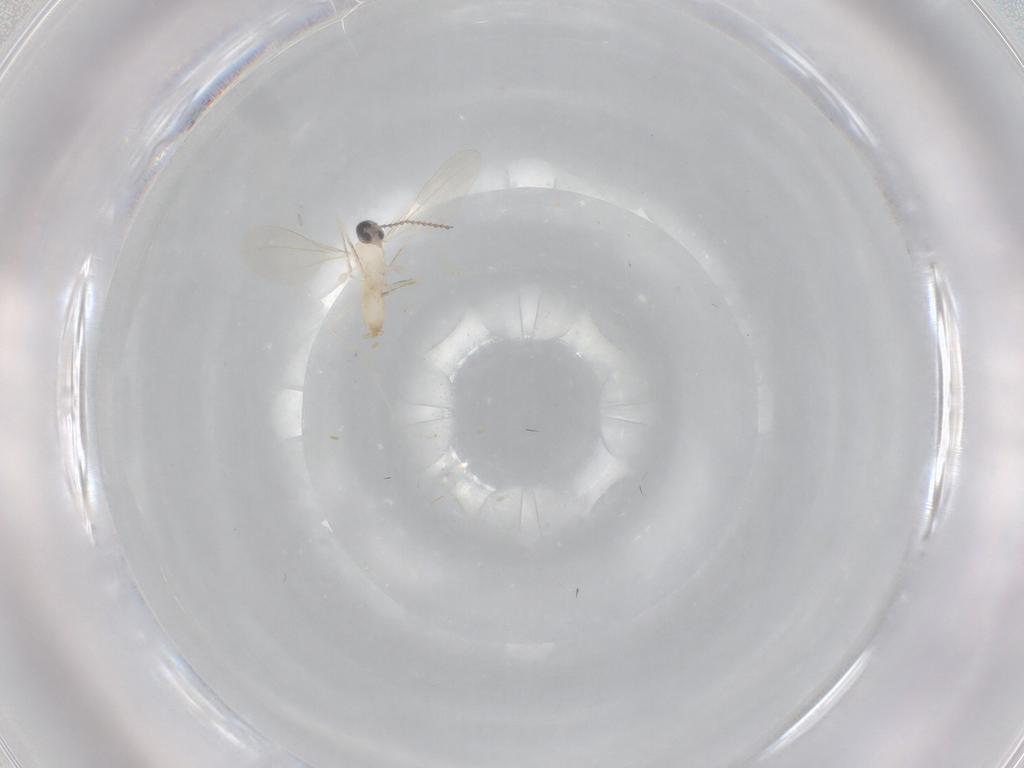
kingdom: Animalia
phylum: Arthropoda
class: Insecta
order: Diptera
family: Cecidomyiidae
